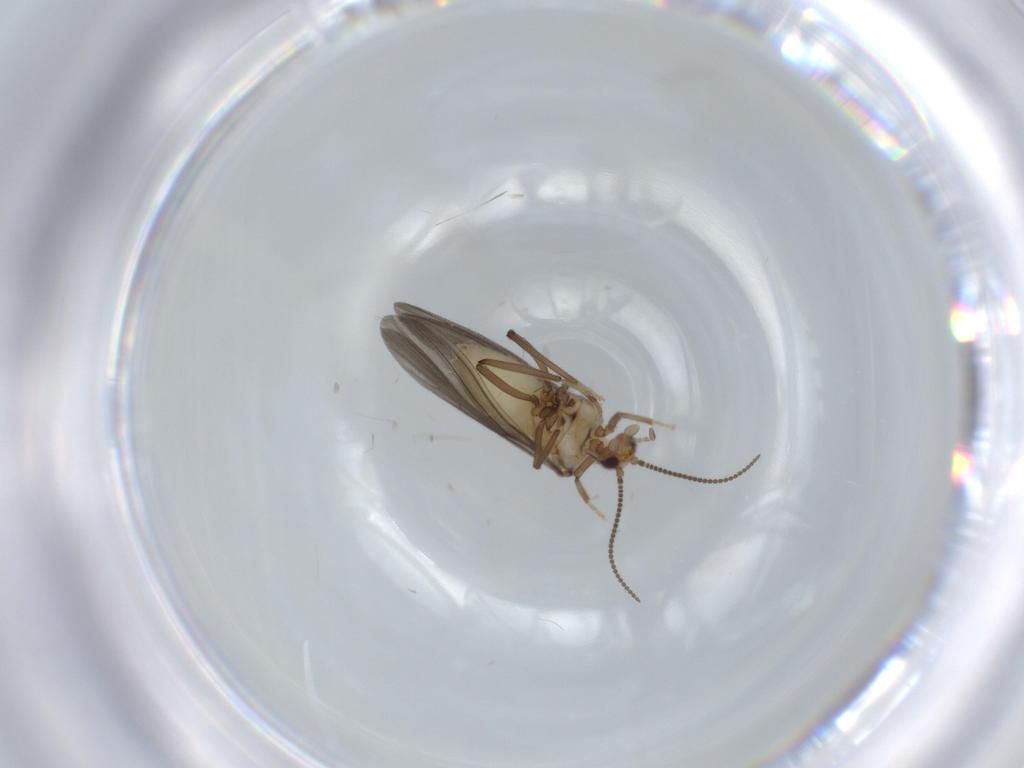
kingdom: Animalia
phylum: Arthropoda
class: Insecta
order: Neuroptera
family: Coniopterygidae
